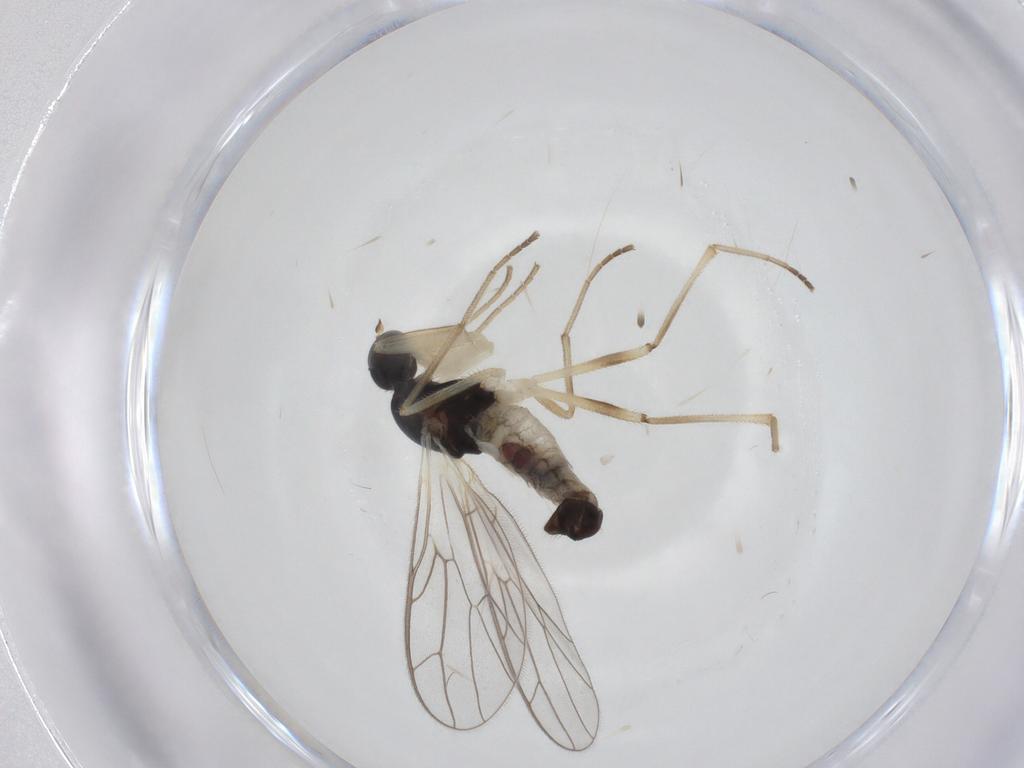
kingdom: Animalia
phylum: Arthropoda
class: Insecta
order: Diptera
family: Empididae
